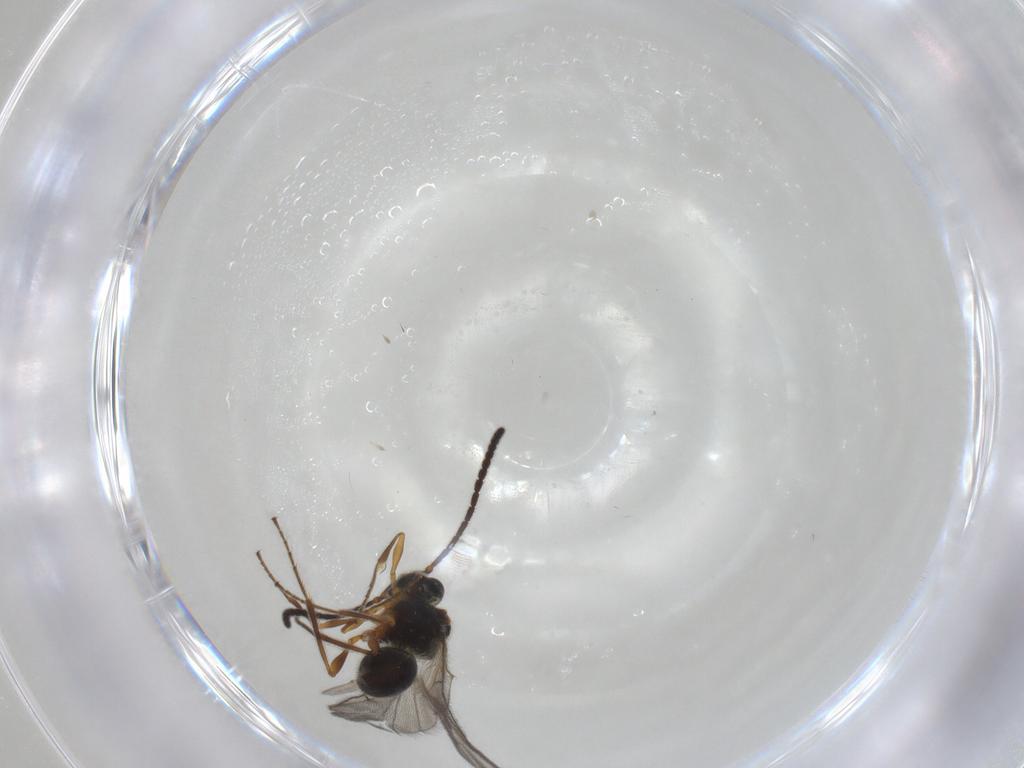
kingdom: Animalia
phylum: Arthropoda
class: Insecta
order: Hymenoptera
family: Diapriidae
